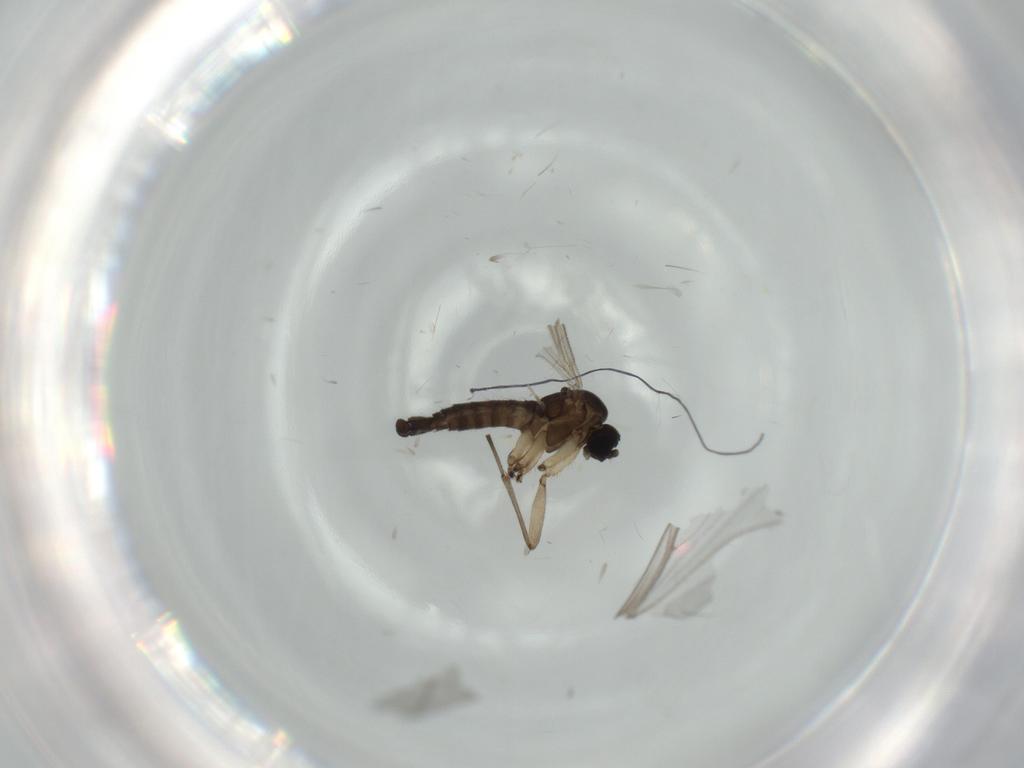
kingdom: Animalia
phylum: Arthropoda
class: Insecta
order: Diptera
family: Cecidomyiidae
